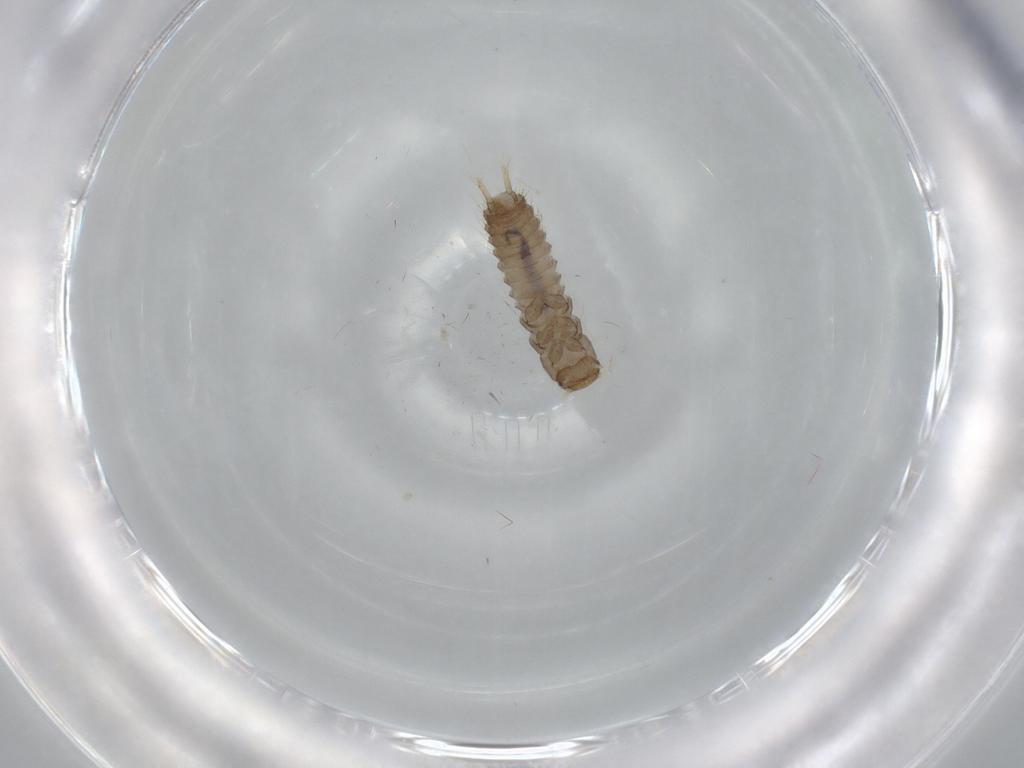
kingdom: Animalia
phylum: Arthropoda
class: Insecta
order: Coleoptera
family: Staphylinidae
